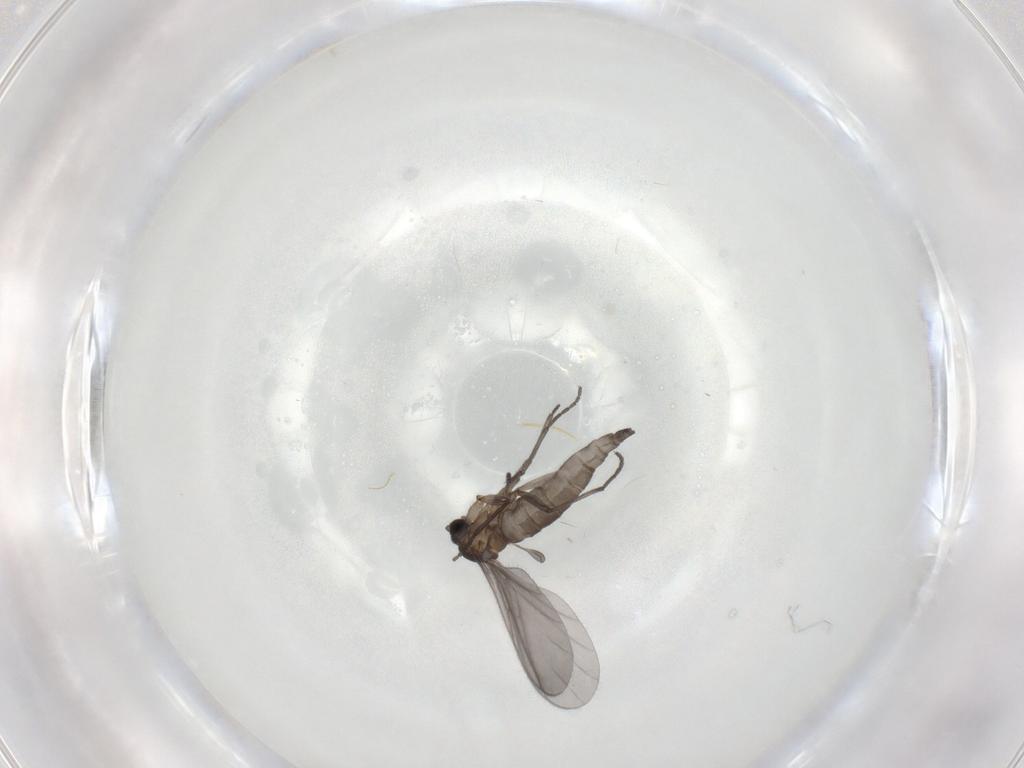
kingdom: Animalia
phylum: Arthropoda
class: Insecta
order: Diptera
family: Sciaridae
